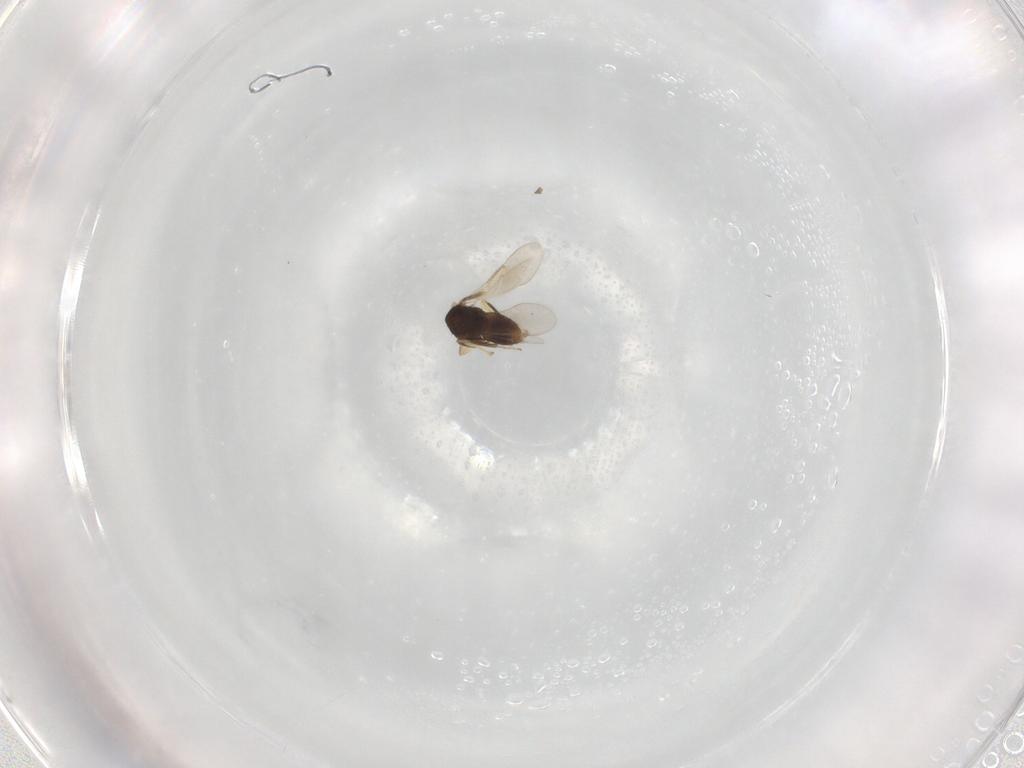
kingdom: Animalia
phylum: Arthropoda
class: Insecta
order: Hymenoptera
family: Aphelinidae
